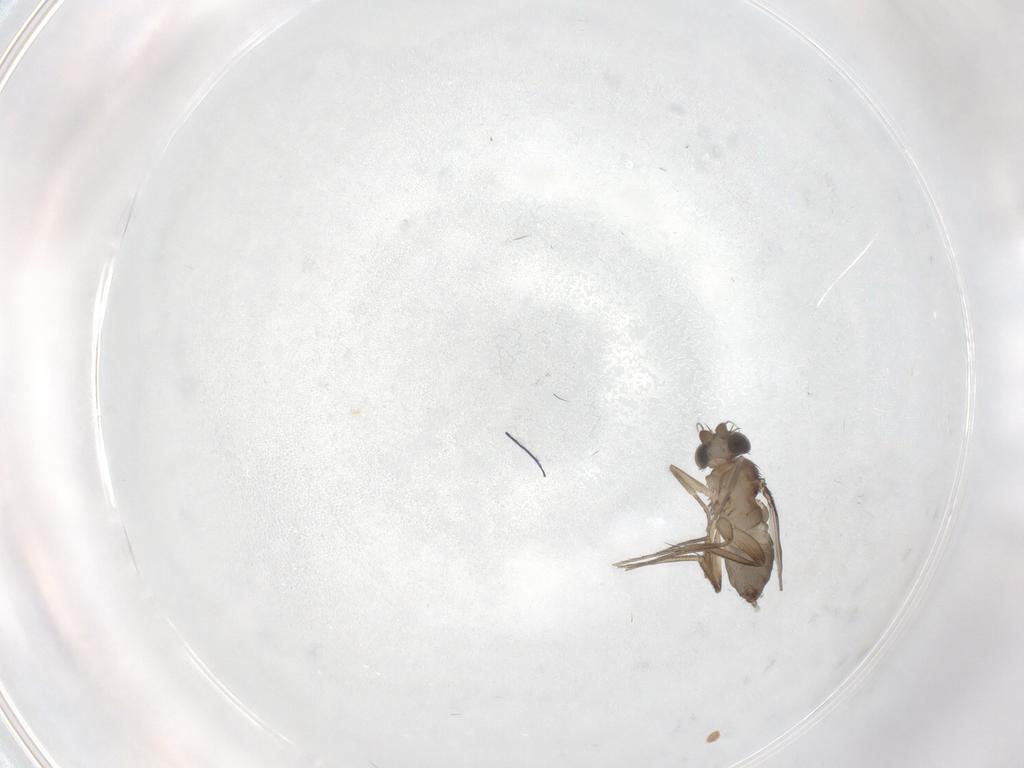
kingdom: Animalia
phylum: Arthropoda
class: Insecta
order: Diptera
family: Phoridae
